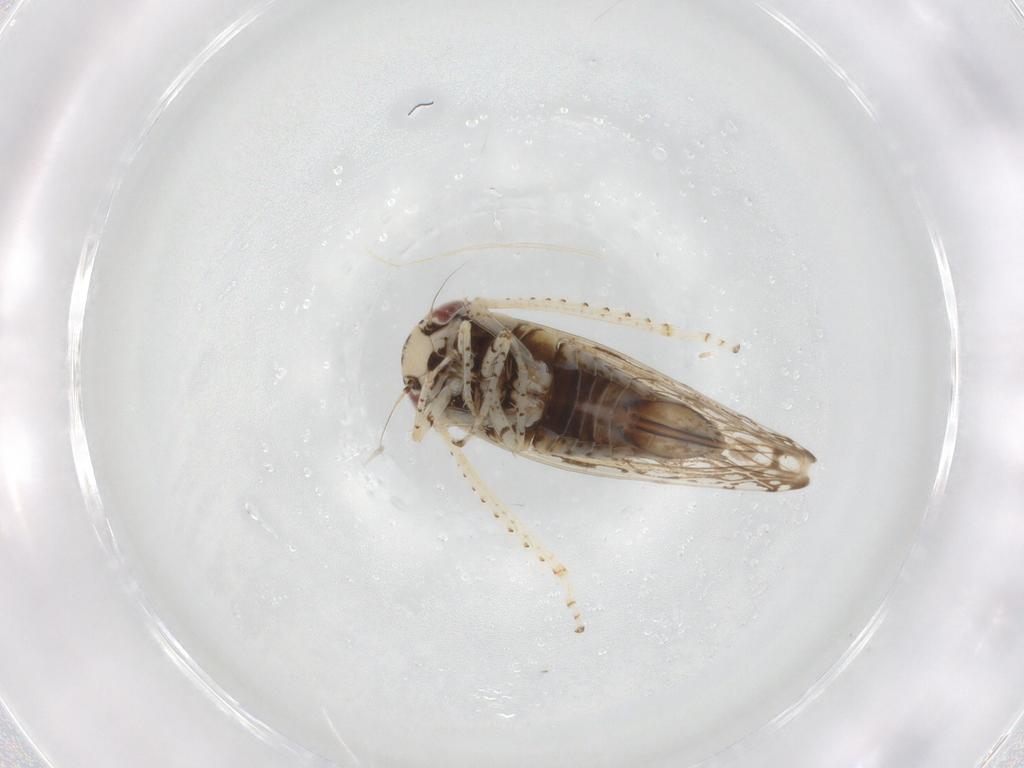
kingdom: Animalia
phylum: Arthropoda
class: Insecta
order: Hemiptera
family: Cicadellidae
